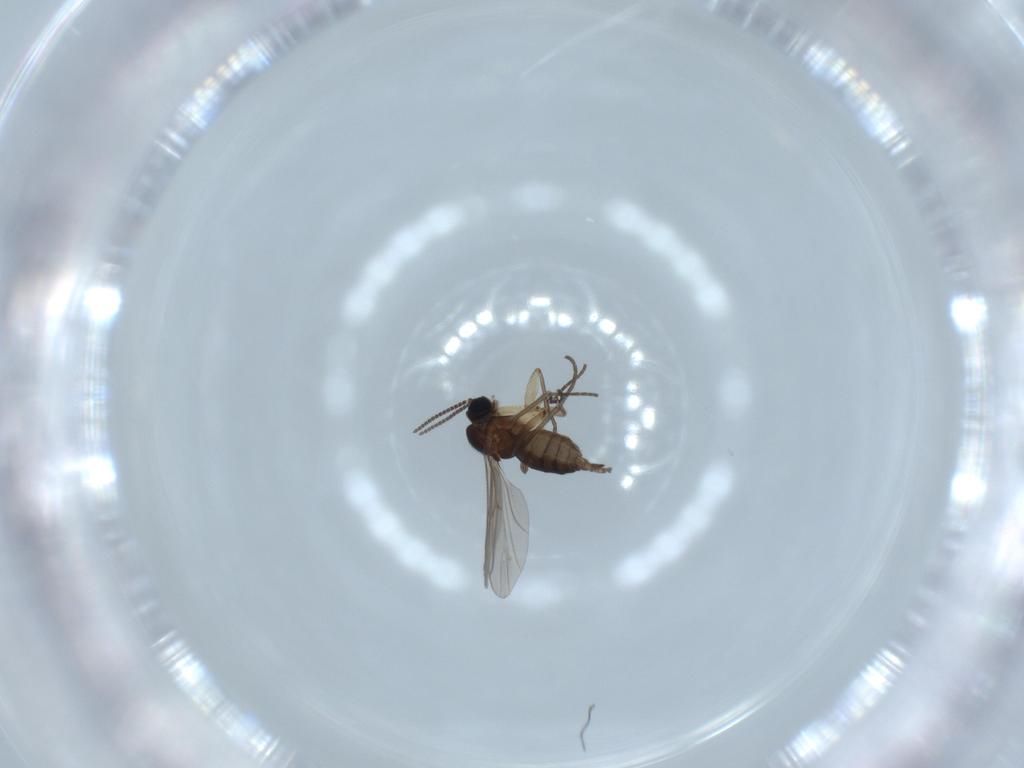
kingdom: Animalia
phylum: Arthropoda
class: Insecta
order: Diptera
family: Sciaridae
